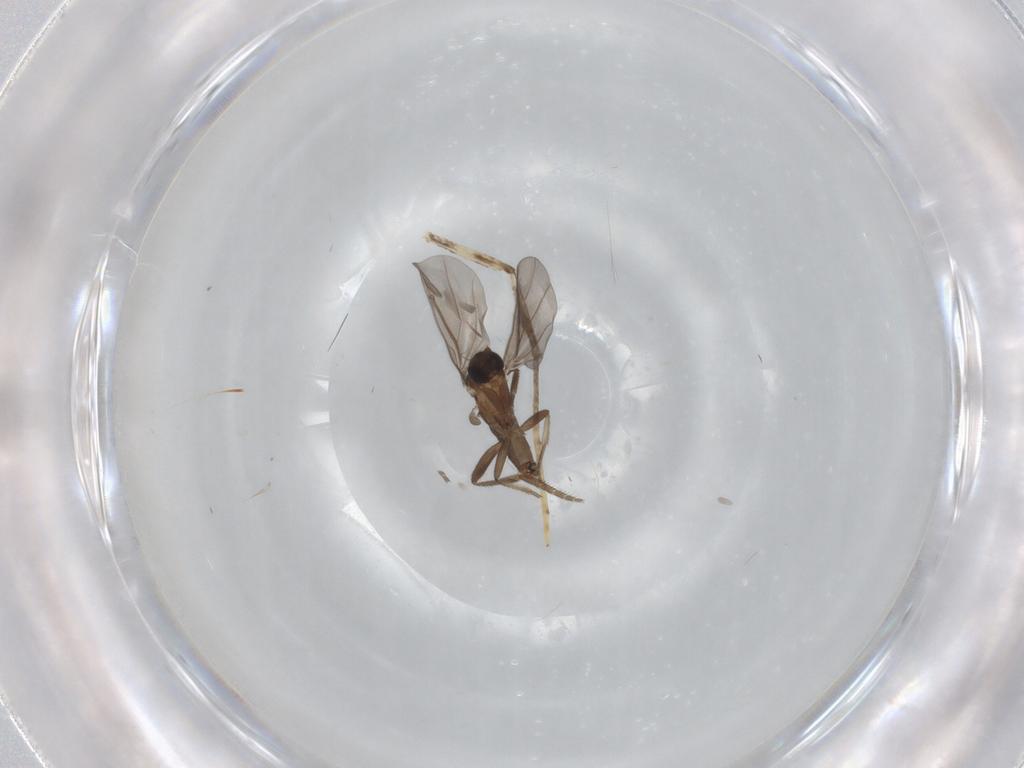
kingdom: Animalia
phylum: Arthropoda
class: Insecta
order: Diptera
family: Phoridae
